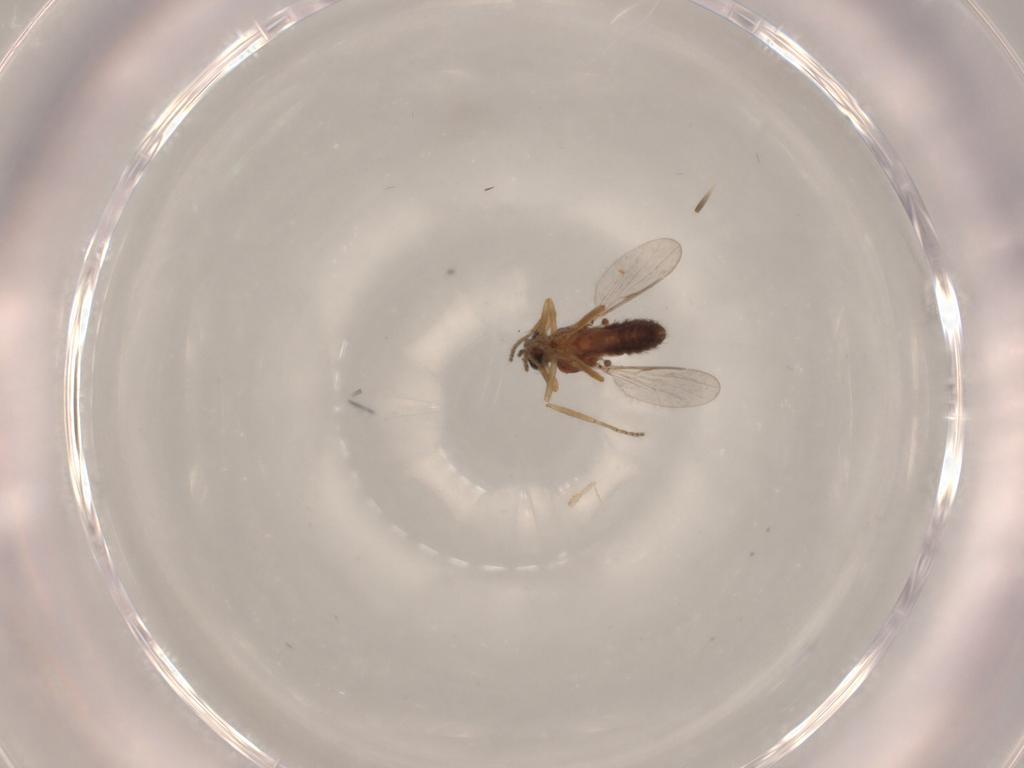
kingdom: Animalia
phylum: Arthropoda
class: Insecta
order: Diptera
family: Ceratopogonidae
